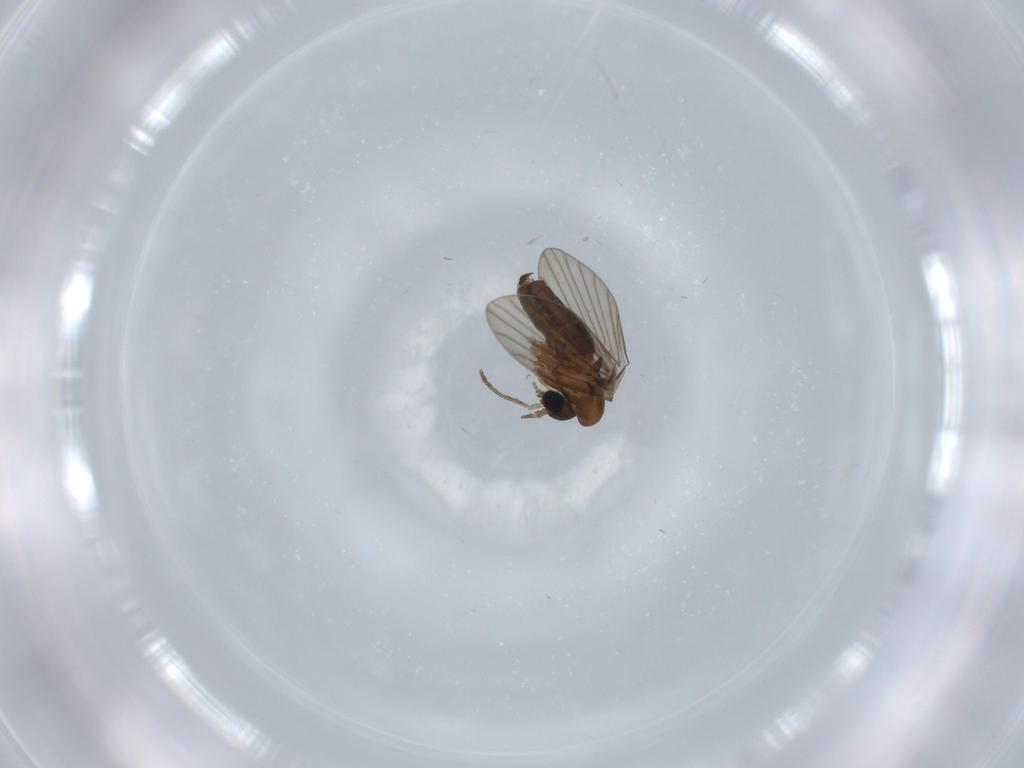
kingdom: Animalia
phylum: Arthropoda
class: Insecta
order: Diptera
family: Psychodidae
